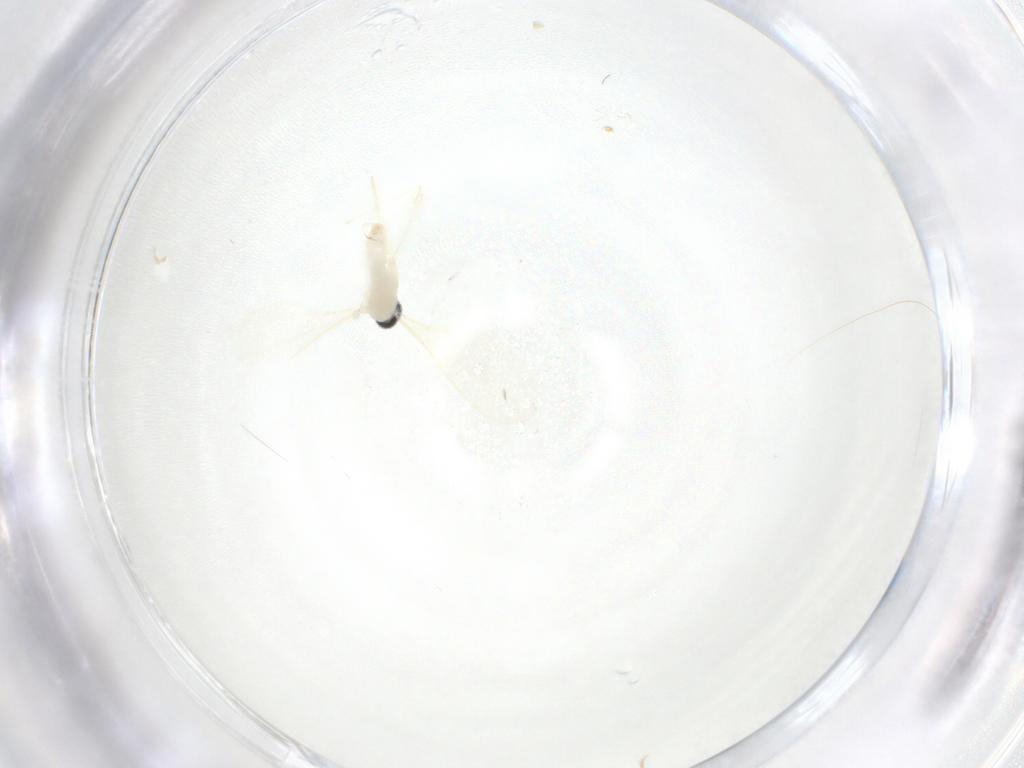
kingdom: Animalia
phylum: Arthropoda
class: Insecta
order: Diptera
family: Cecidomyiidae
